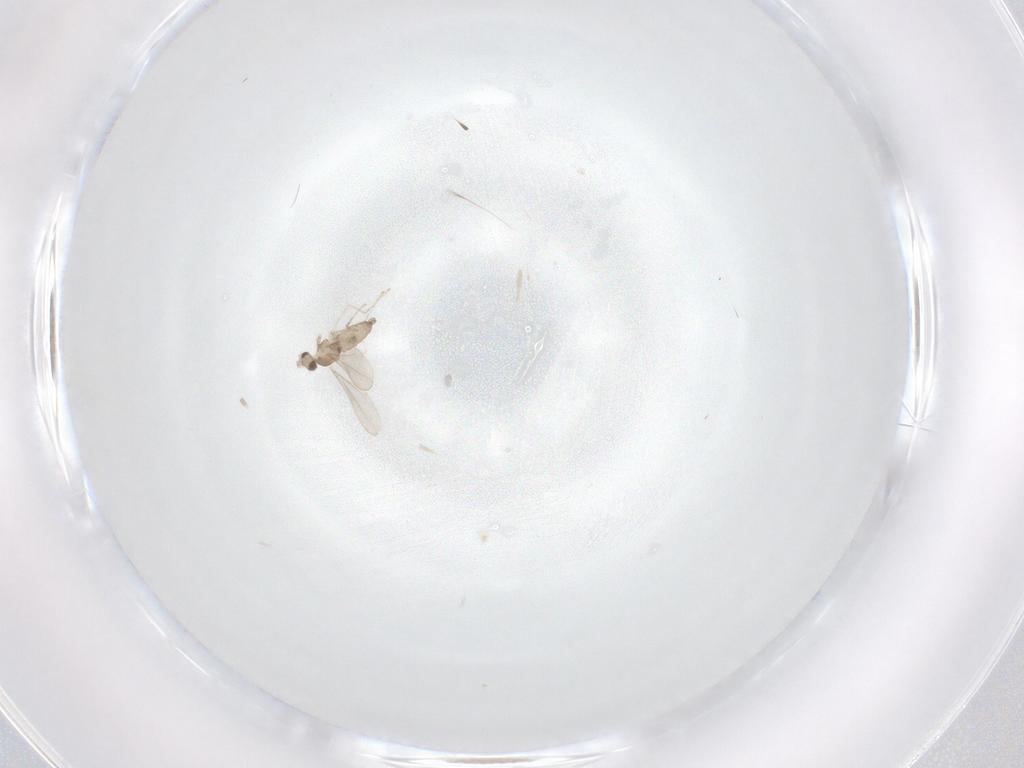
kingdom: Animalia
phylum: Arthropoda
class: Insecta
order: Diptera
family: Cecidomyiidae
